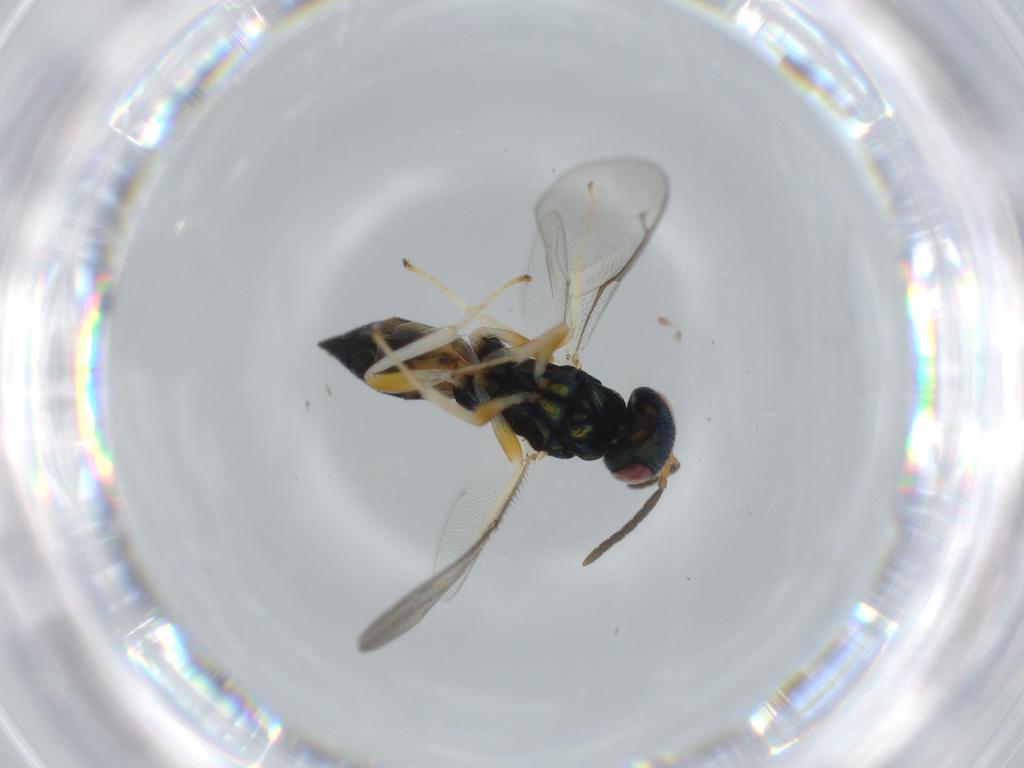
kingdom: Animalia
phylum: Arthropoda
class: Insecta
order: Hymenoptera
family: Pteromalidae
